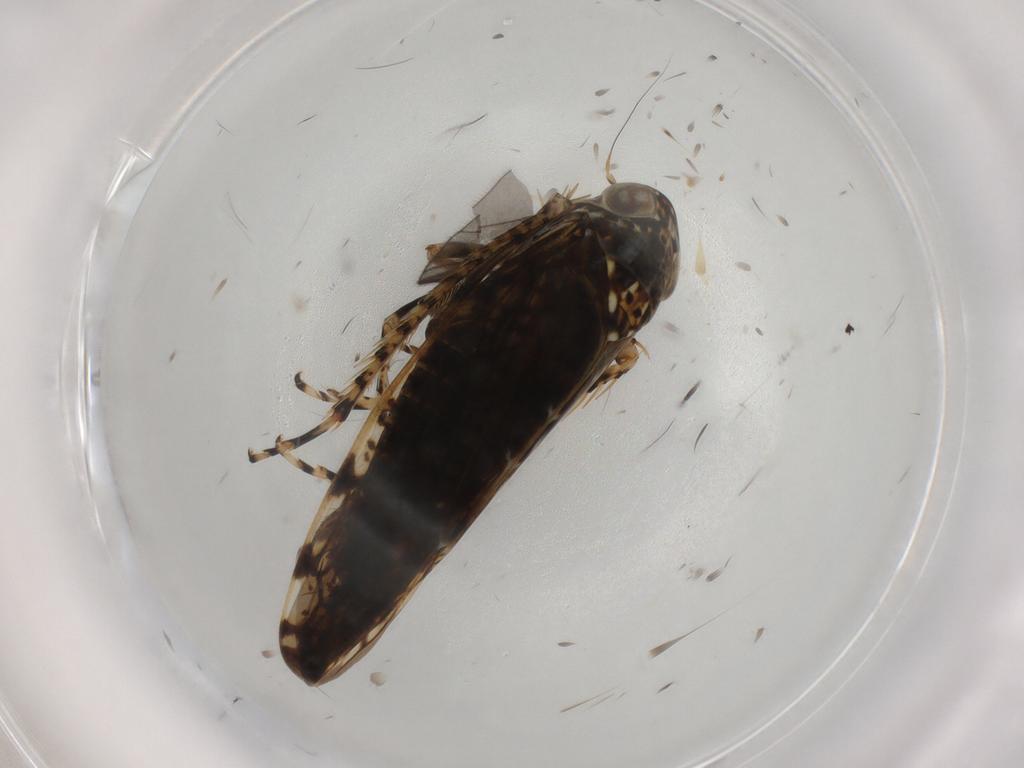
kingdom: Animalia
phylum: Arthropoda
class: Insecta
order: Hemiptera
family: Cicadellidae
